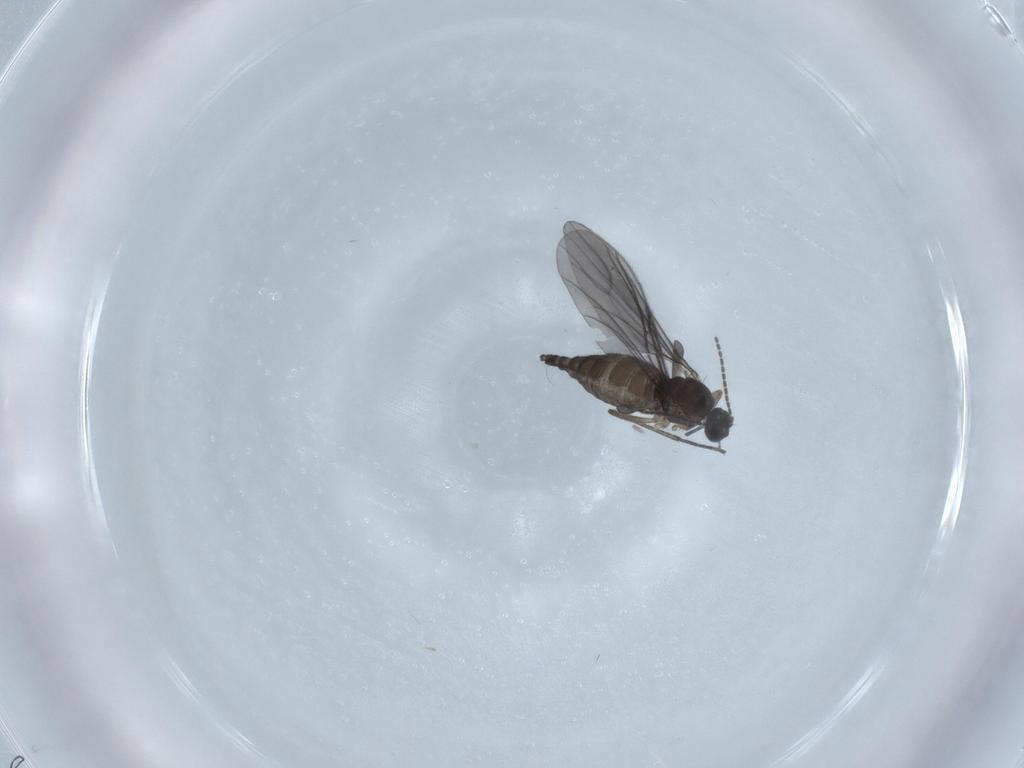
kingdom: Animalia
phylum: Arthropoda
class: Insecta
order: Diptera
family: Sciaridae
